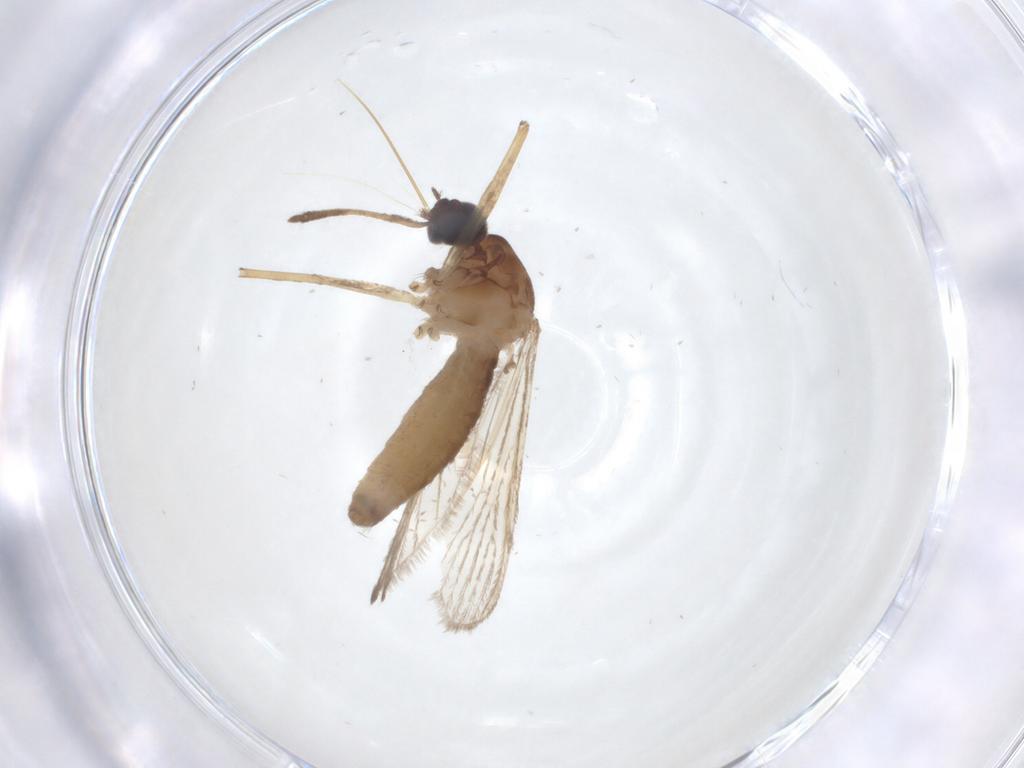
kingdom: Animalia
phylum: Arthropoda
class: Insecta
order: Diptera
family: Culicidae
